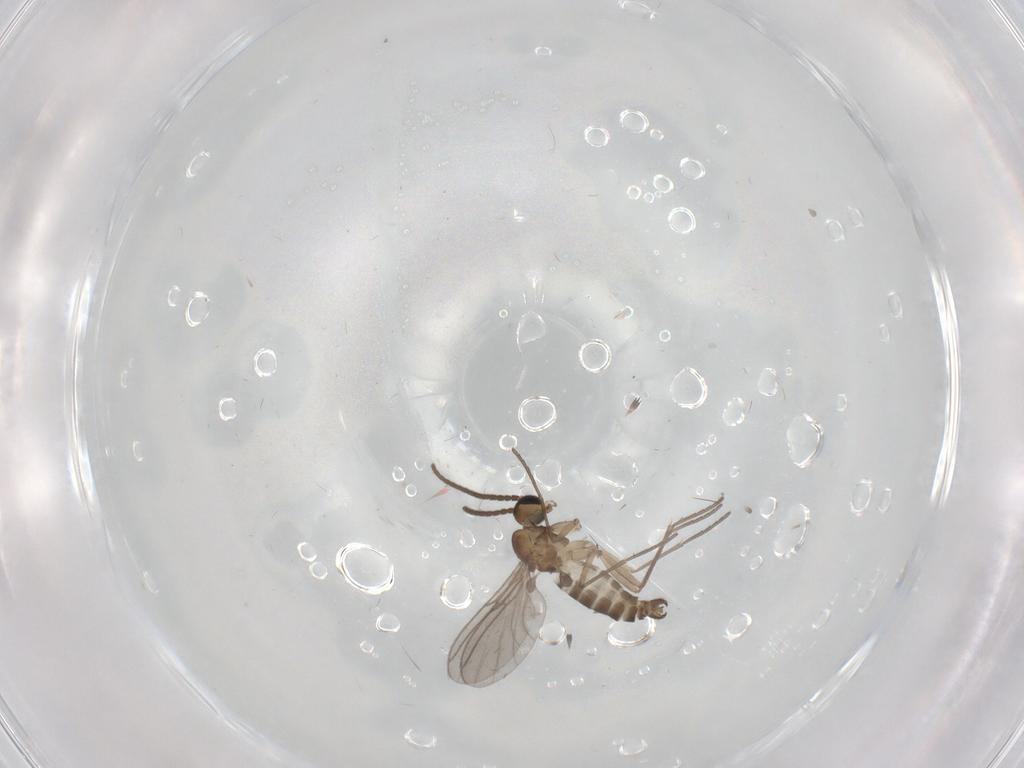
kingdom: Animalia
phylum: Arthropoda
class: Insecta
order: Diptera
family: Sciaridae
